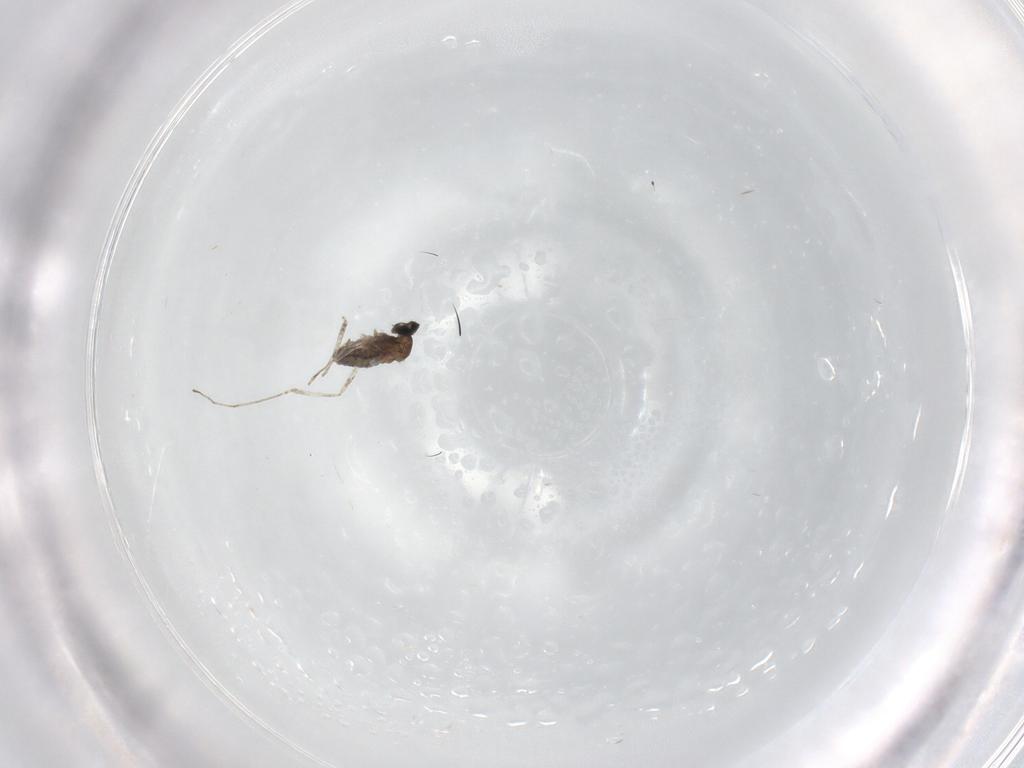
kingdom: Animalia
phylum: Arthropoda
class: Insecta
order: Diptera
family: Cecidomyiidae
